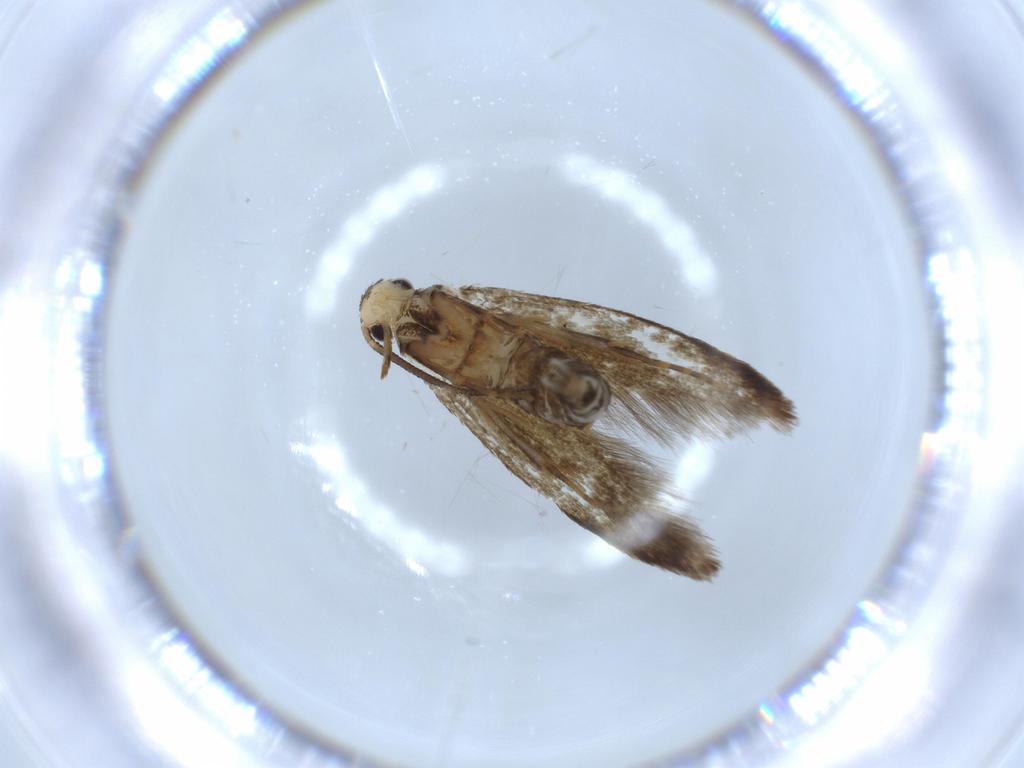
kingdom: Animalia
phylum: Arthropoda
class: Insecta
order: Lepidoptera
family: Tineidae
